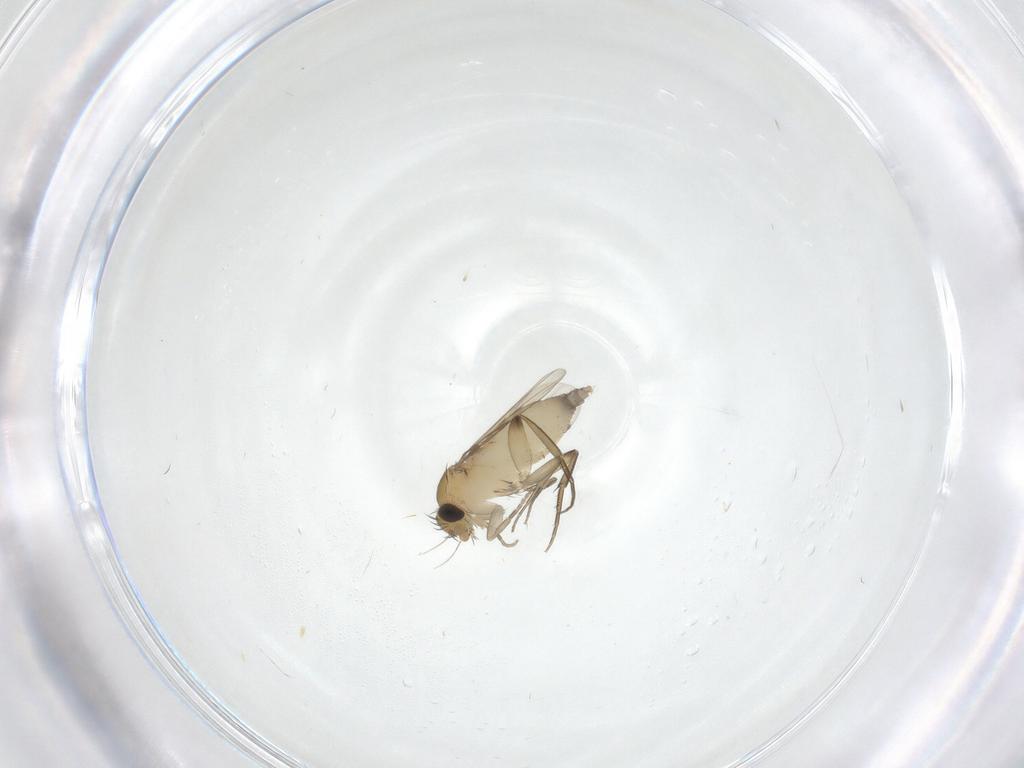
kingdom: Animalia
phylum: Arthropoda
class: Insecta
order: Diptera
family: Phoridae
